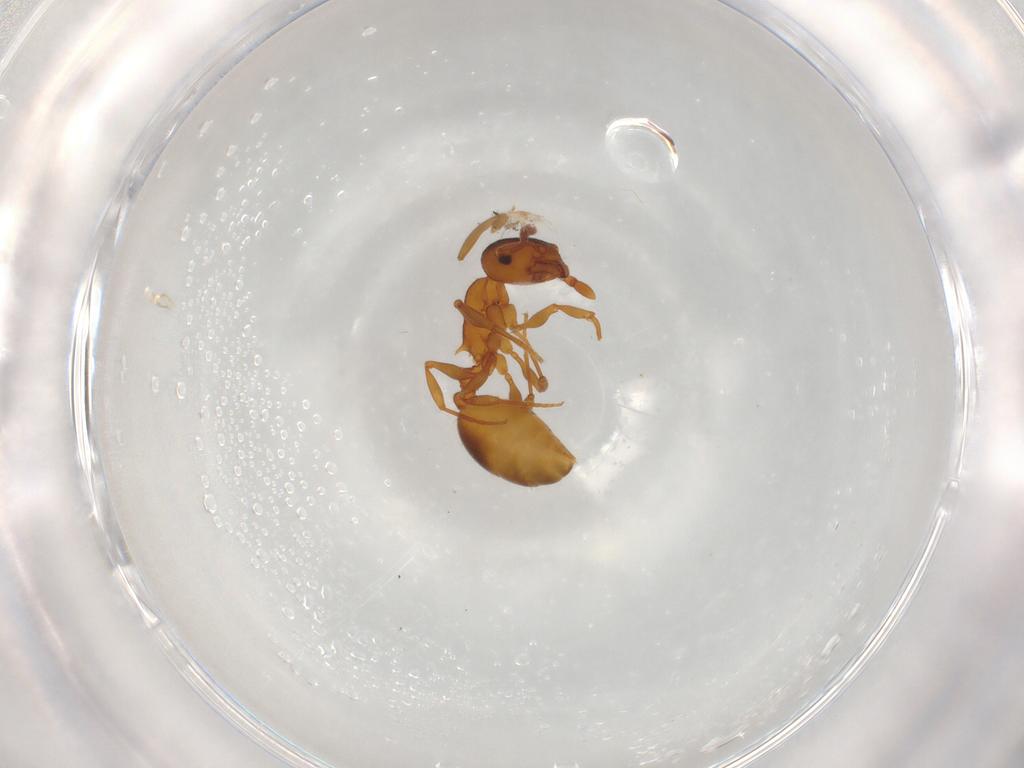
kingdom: Animalia
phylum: Arthropoda
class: Insecta
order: Hymenoptera
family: Formicidae
